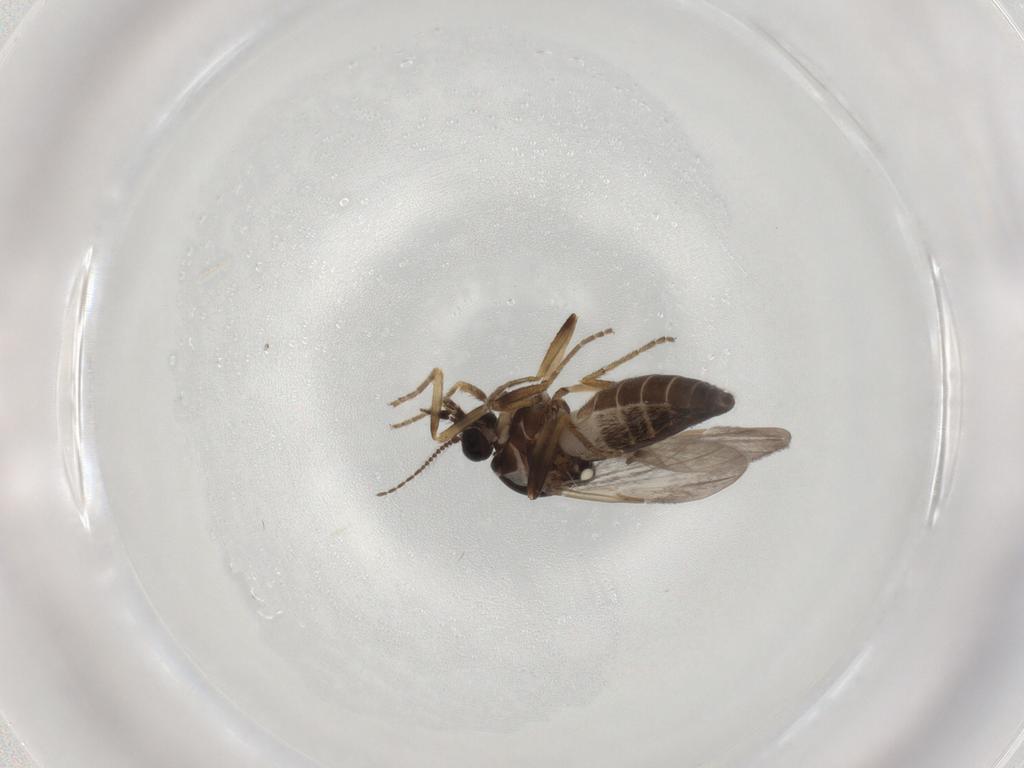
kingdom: Animalia
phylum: Arthropoda
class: Insecta
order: Diptera
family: Ceratopogonidae
